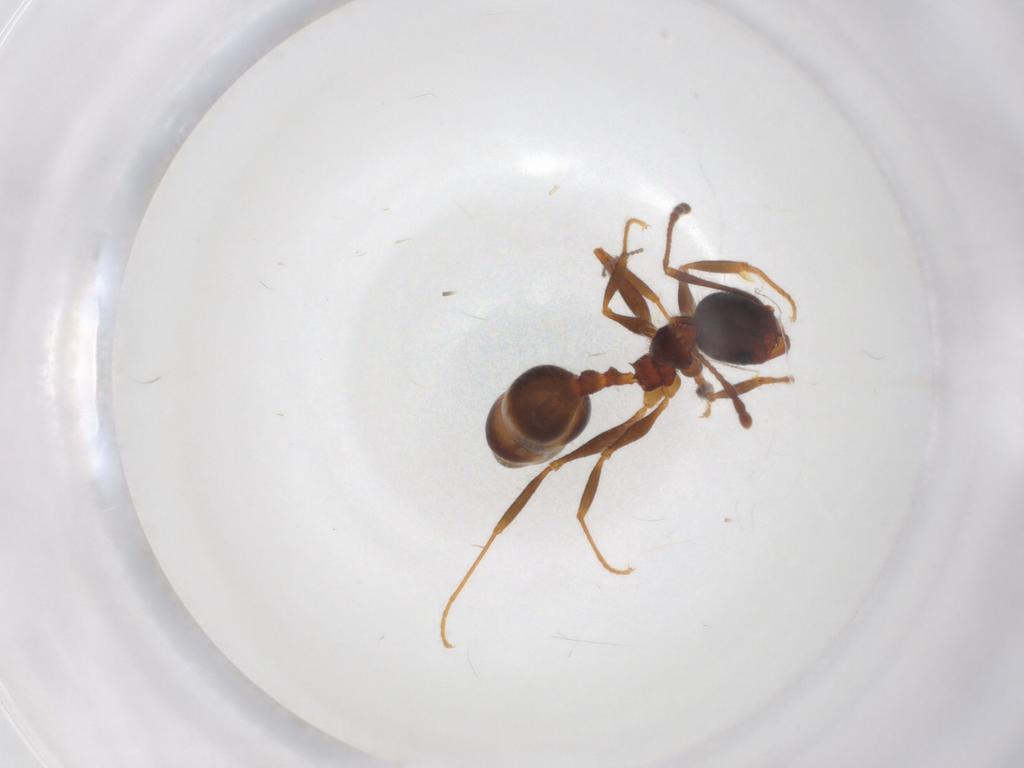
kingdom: Animalia
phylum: Arthropoda
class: Insecta
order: Hymenoptera
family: Formicidae
